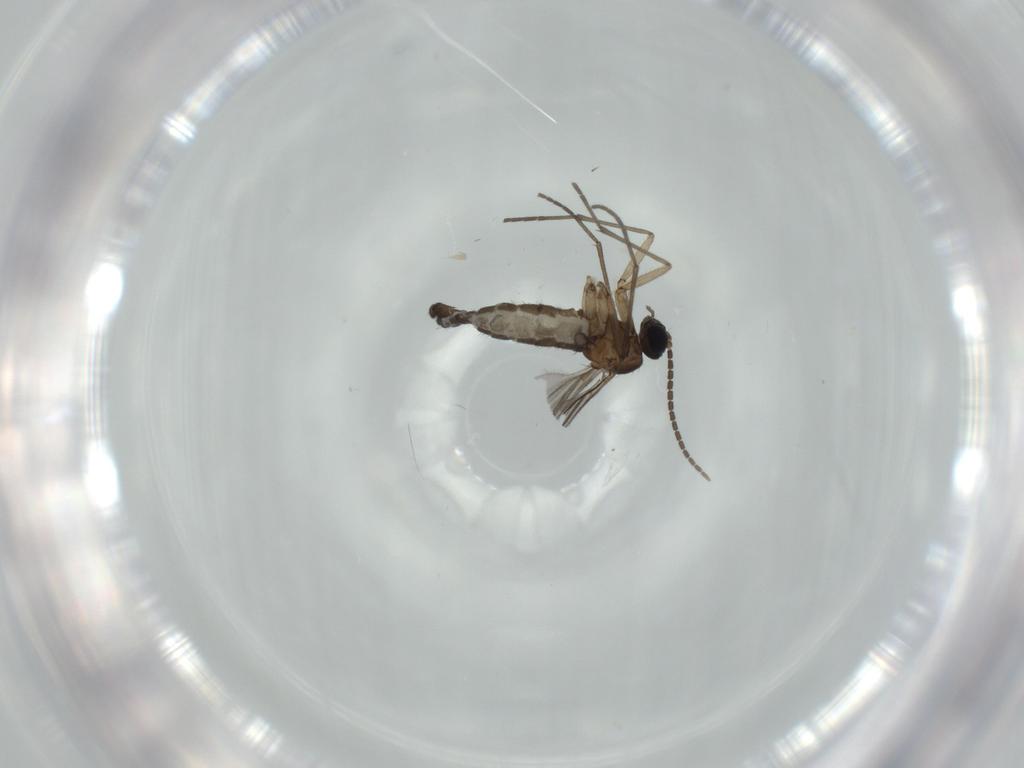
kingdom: Animalia
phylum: Arthropoda
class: Insecta
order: Diptera
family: Sciaridae
